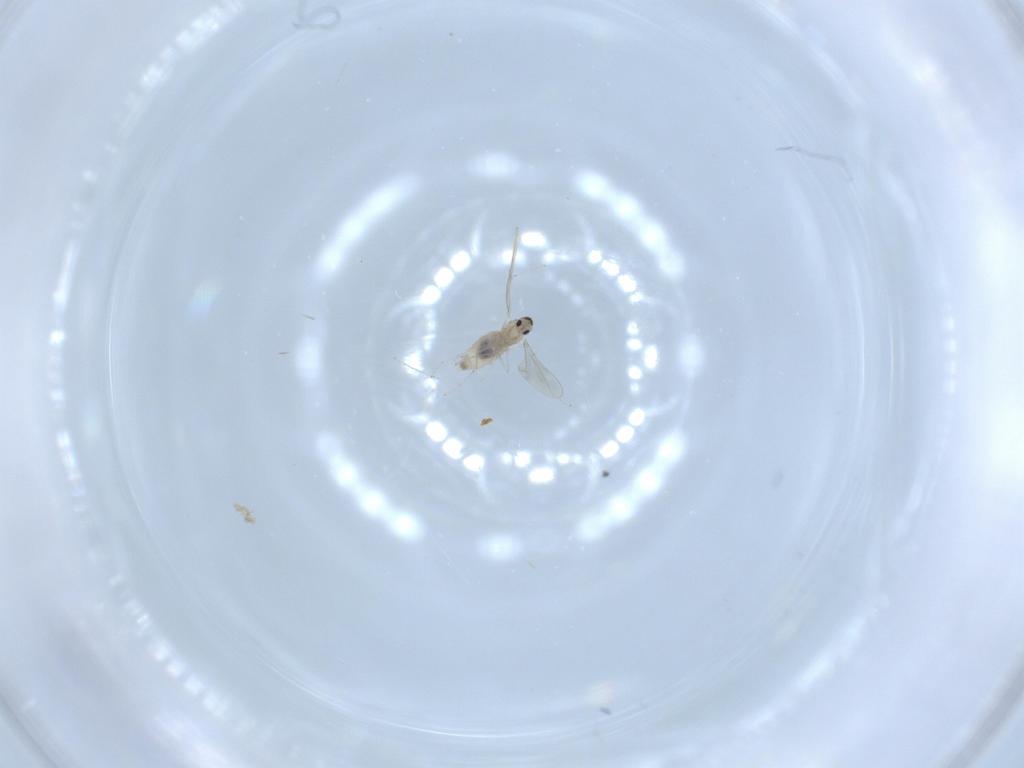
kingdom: Animalia
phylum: Arthropoda
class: Insecta
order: Diptera
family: Cecidomyiidae
